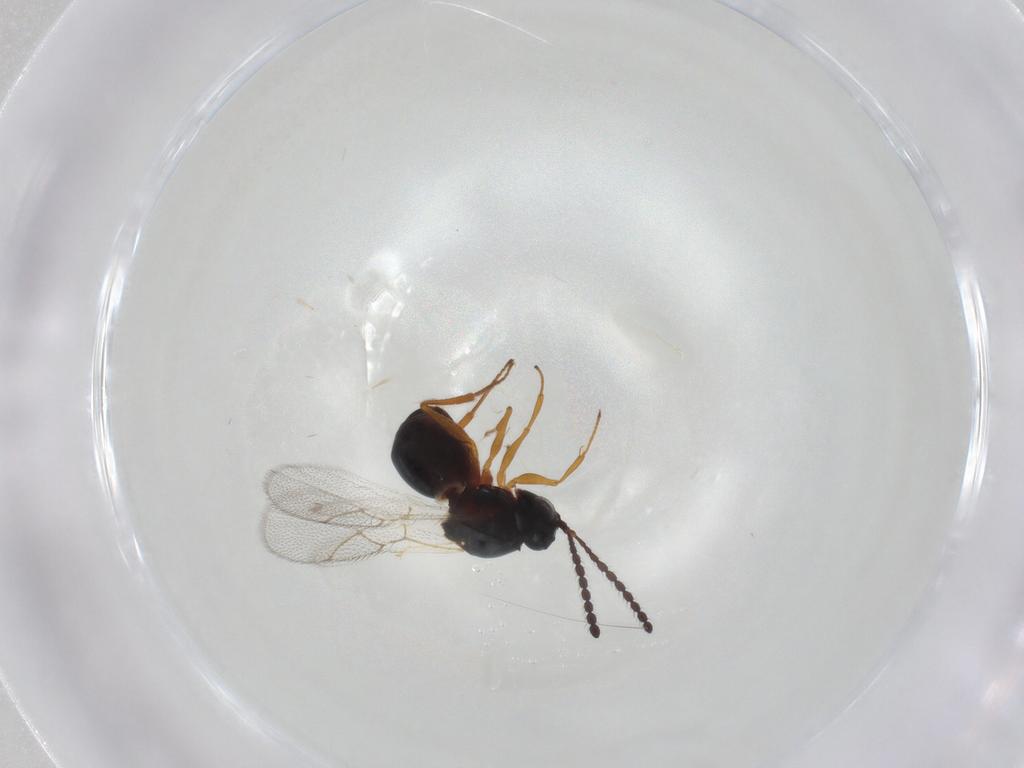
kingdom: Animalia
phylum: Arthropoda
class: Insecta
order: Hymenoptera
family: Figitidae
